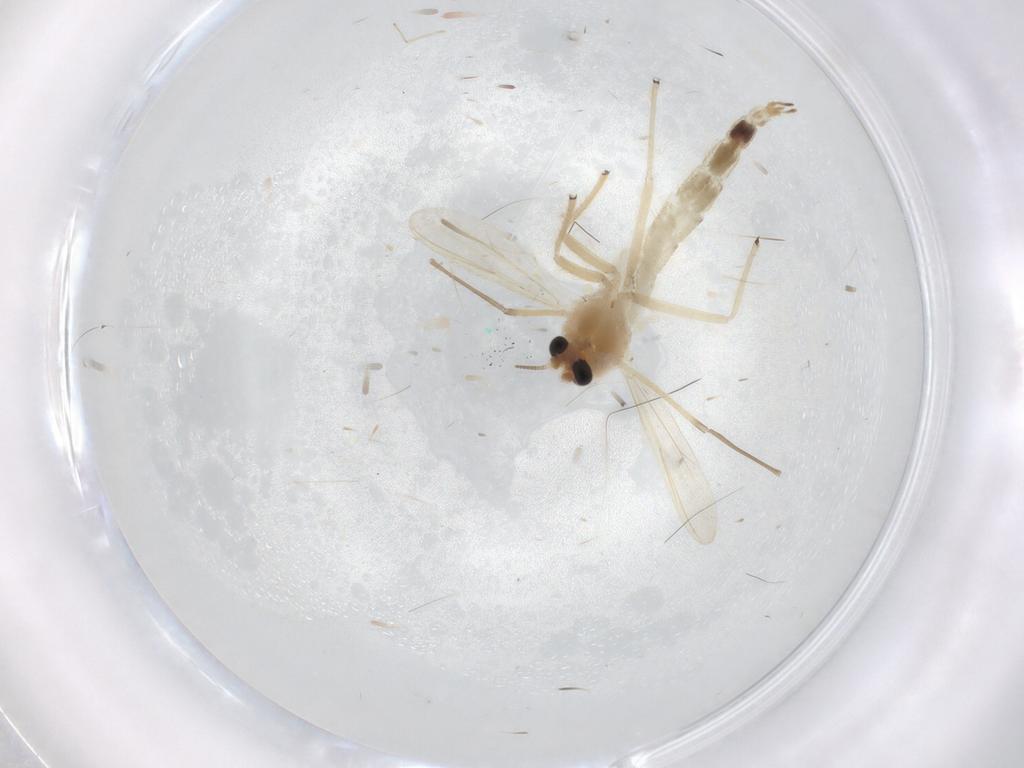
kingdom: Animalia
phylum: Arthropoda
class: Insecta
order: Diptera
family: Chironomidae
